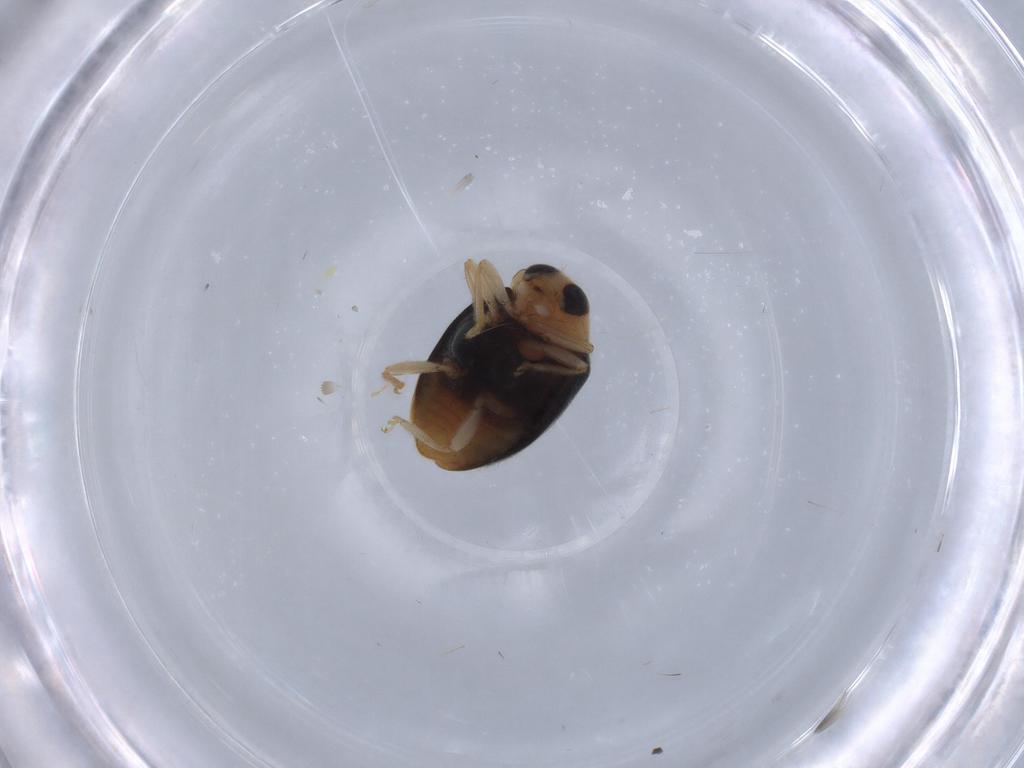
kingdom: Animalia
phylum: Arthropoda
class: Insecta
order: Coleoptera
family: Coccinellidae
